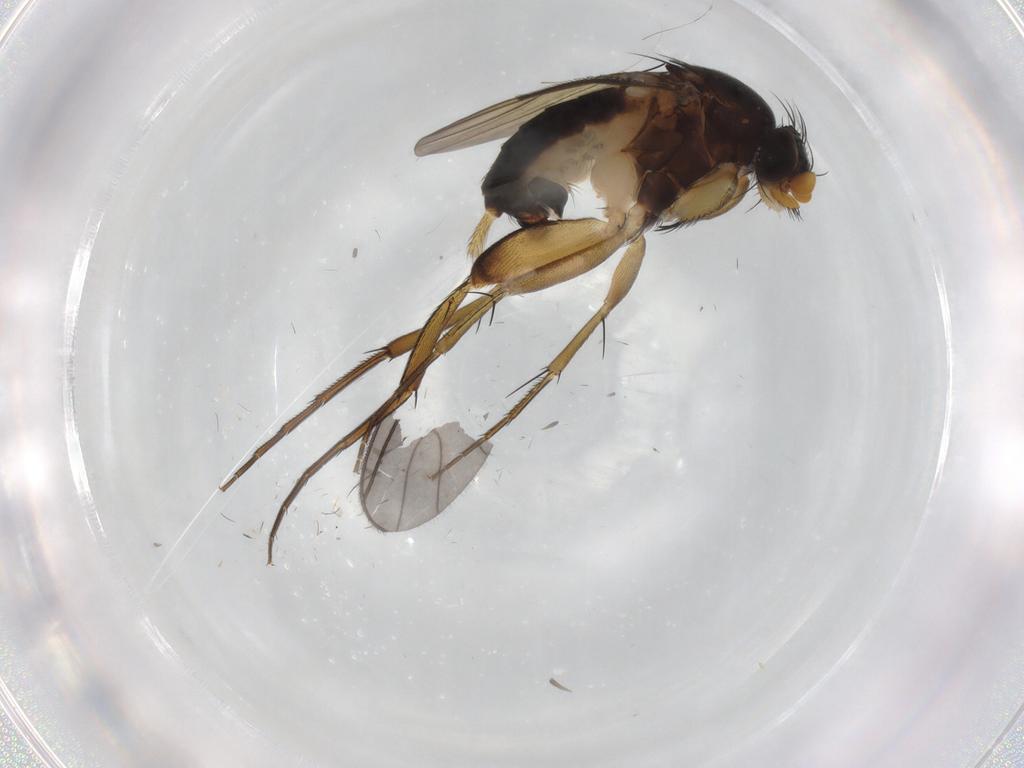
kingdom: Animalia
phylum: Arthropoda
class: Insecta
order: Diptera
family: Phoridae
